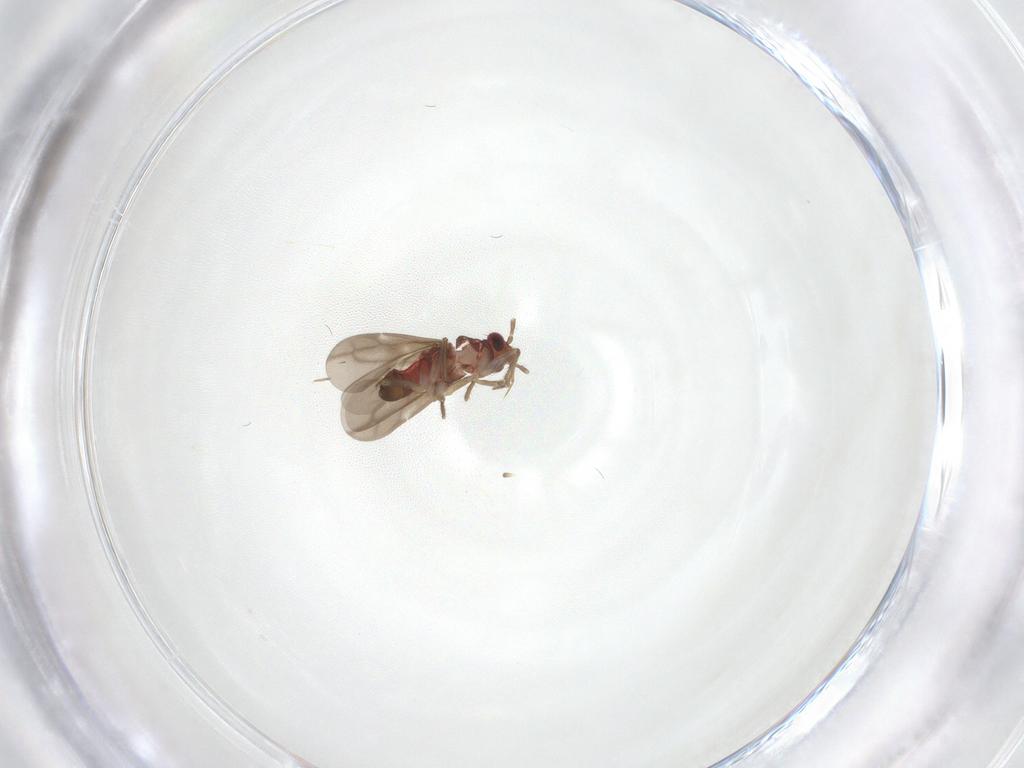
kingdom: Animalia
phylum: Arthropoda
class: Insecta
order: Hemiptera
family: Ceratocombidae
